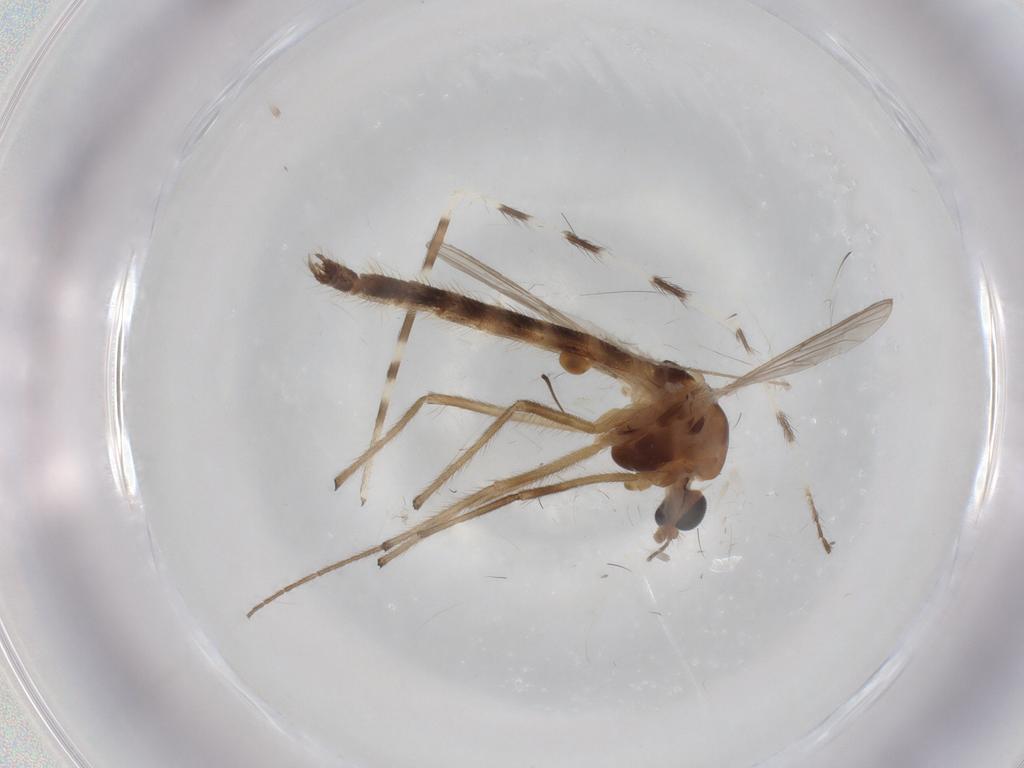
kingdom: Animalia
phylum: Arthropoda
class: Insecta
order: Diptera
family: Chironomidae
